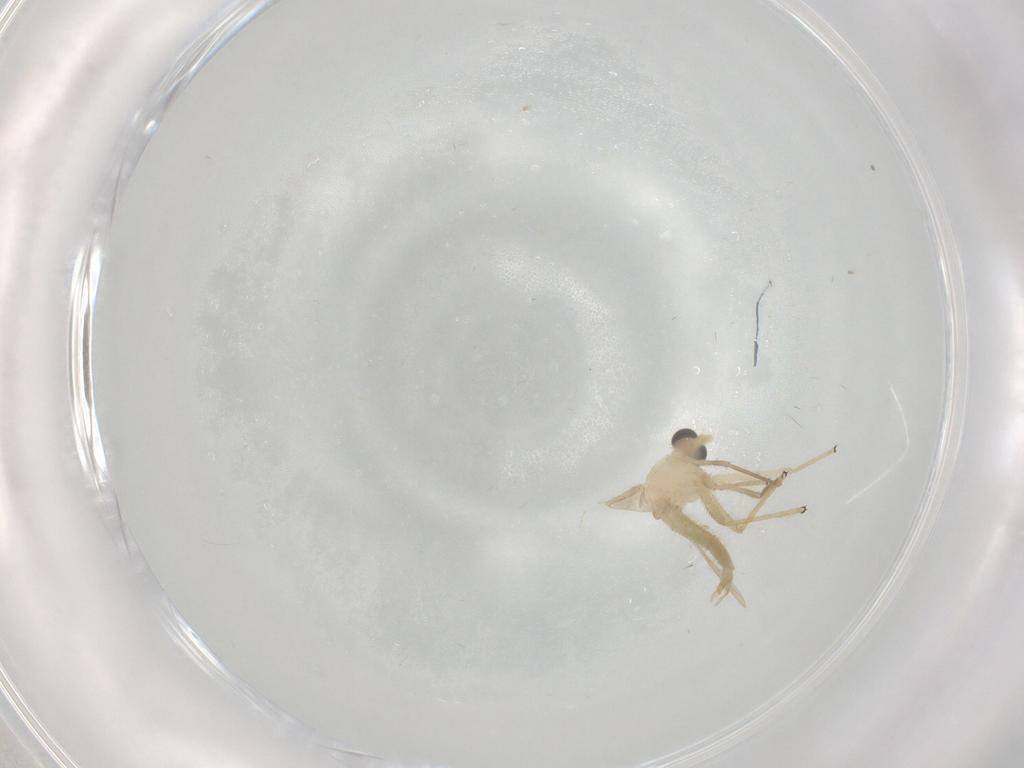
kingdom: Animalia
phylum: Arthropoda
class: Insecta
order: Diptera
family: Chironomidae
